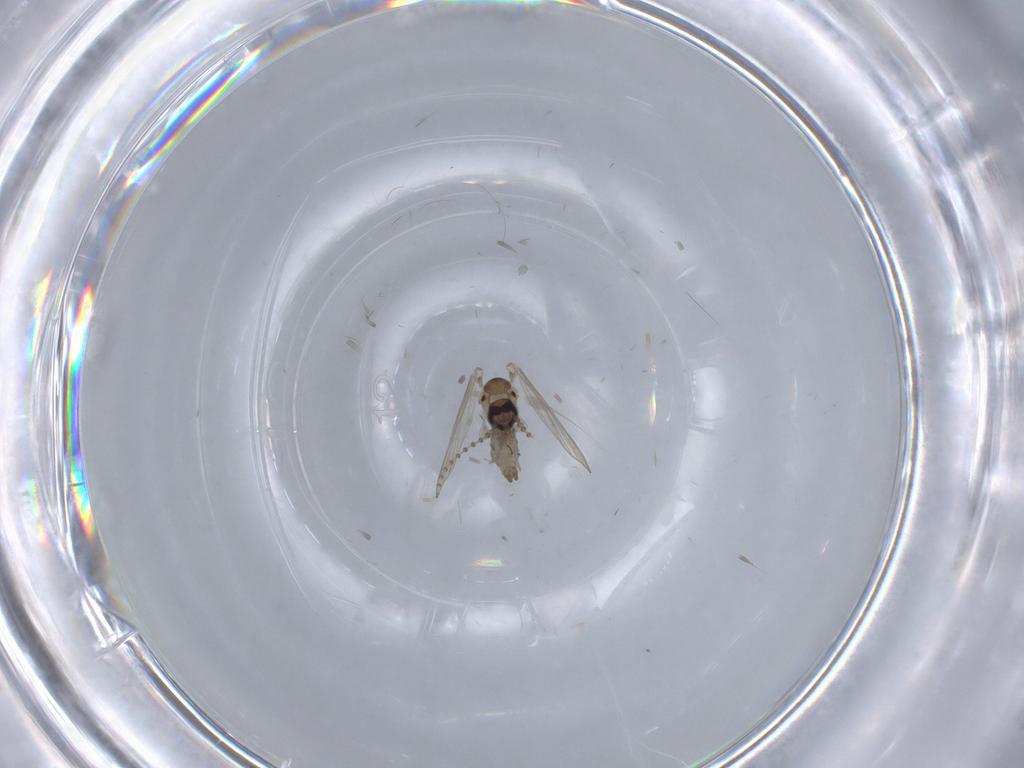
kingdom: Animalia
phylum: Arthropoda
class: Insecta
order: Diptera
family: Psychodidae
